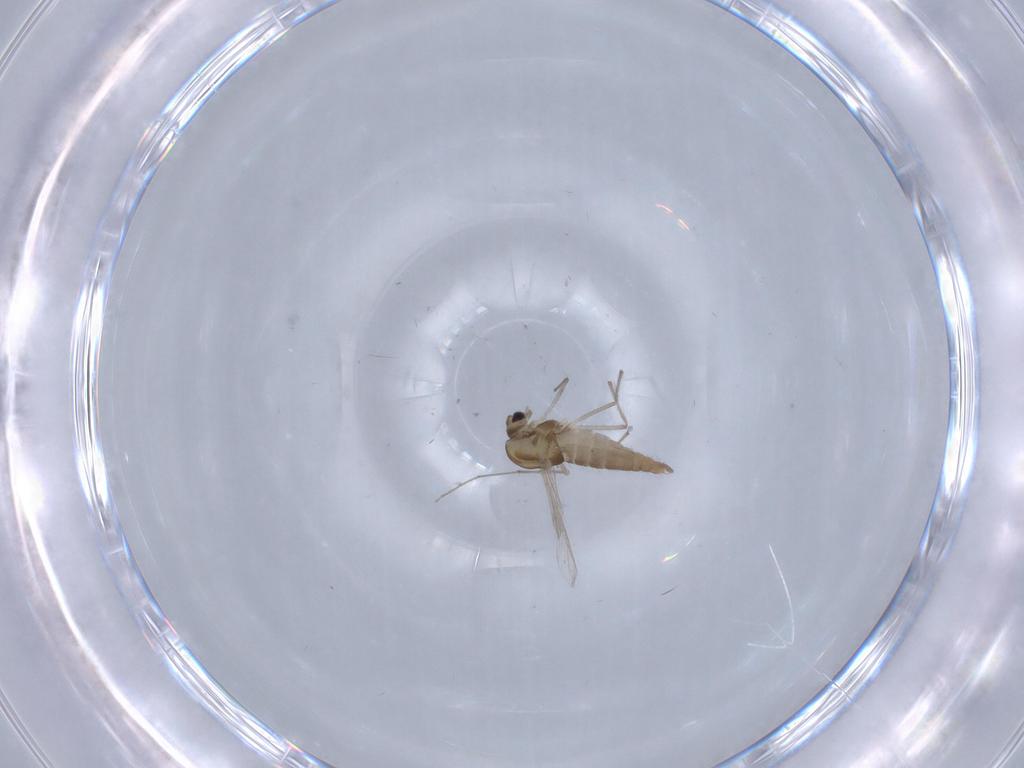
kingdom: Animalia
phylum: Arthropoda
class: Insecta
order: Diptera
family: Chironomidae
